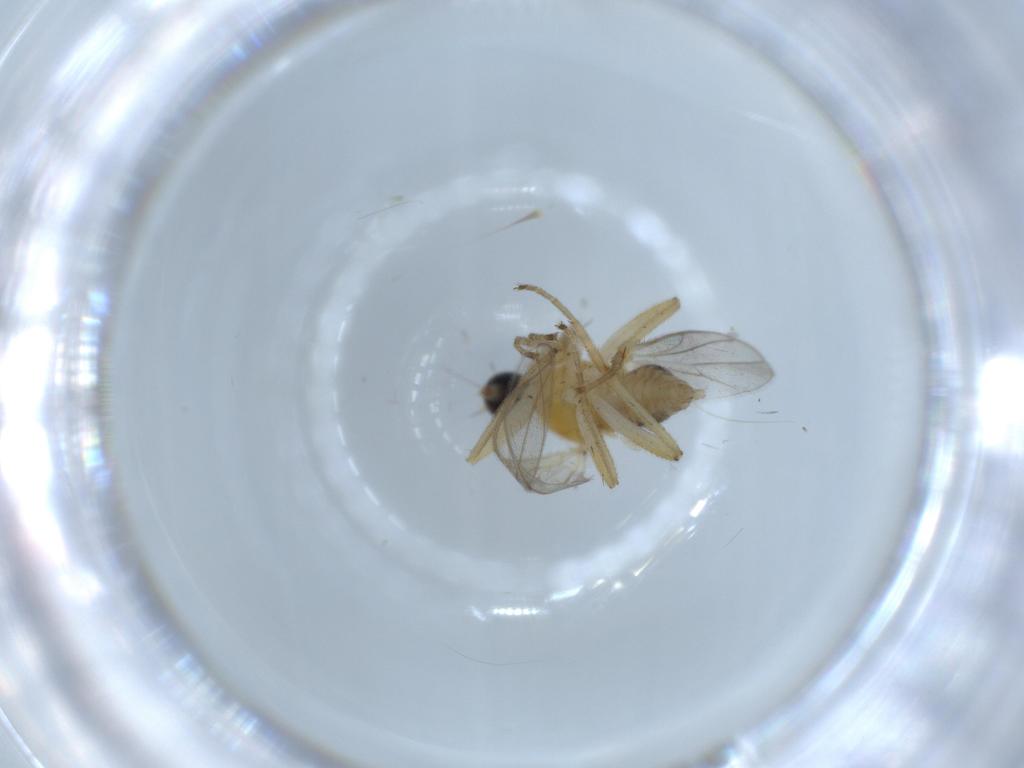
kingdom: Animalia
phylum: Arthropoda
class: Insecta
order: Diptera
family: Hybotidae
